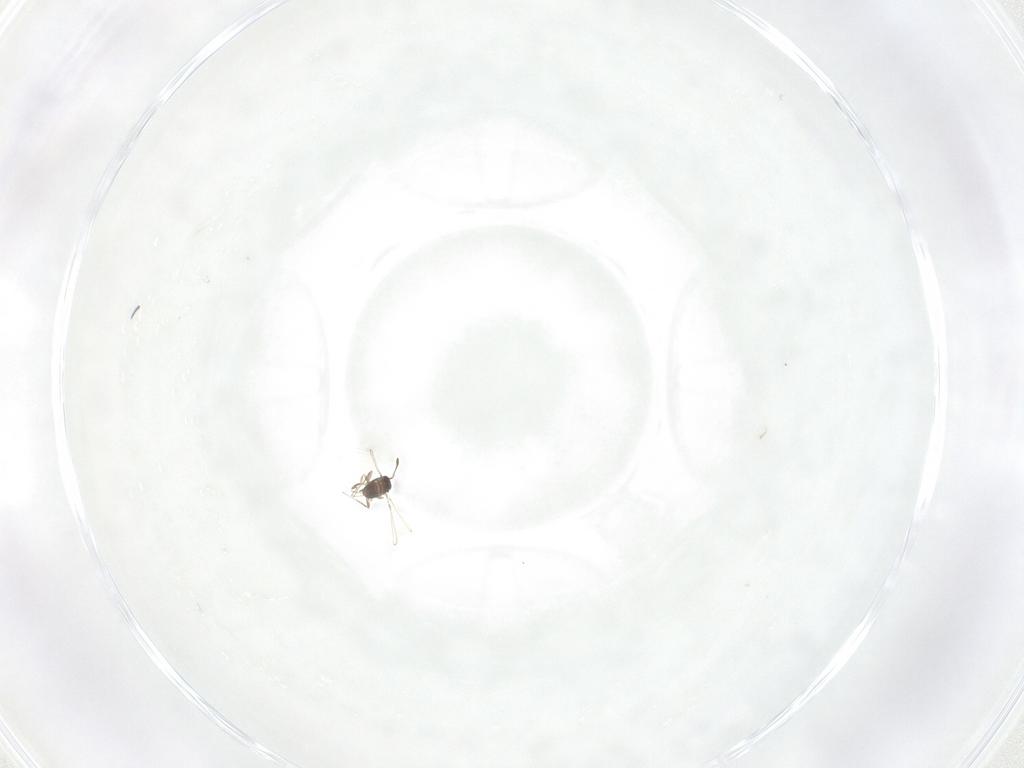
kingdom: Animalia
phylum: Arthropoda
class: Insecta
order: Hymenoptera
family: Mymaridae
